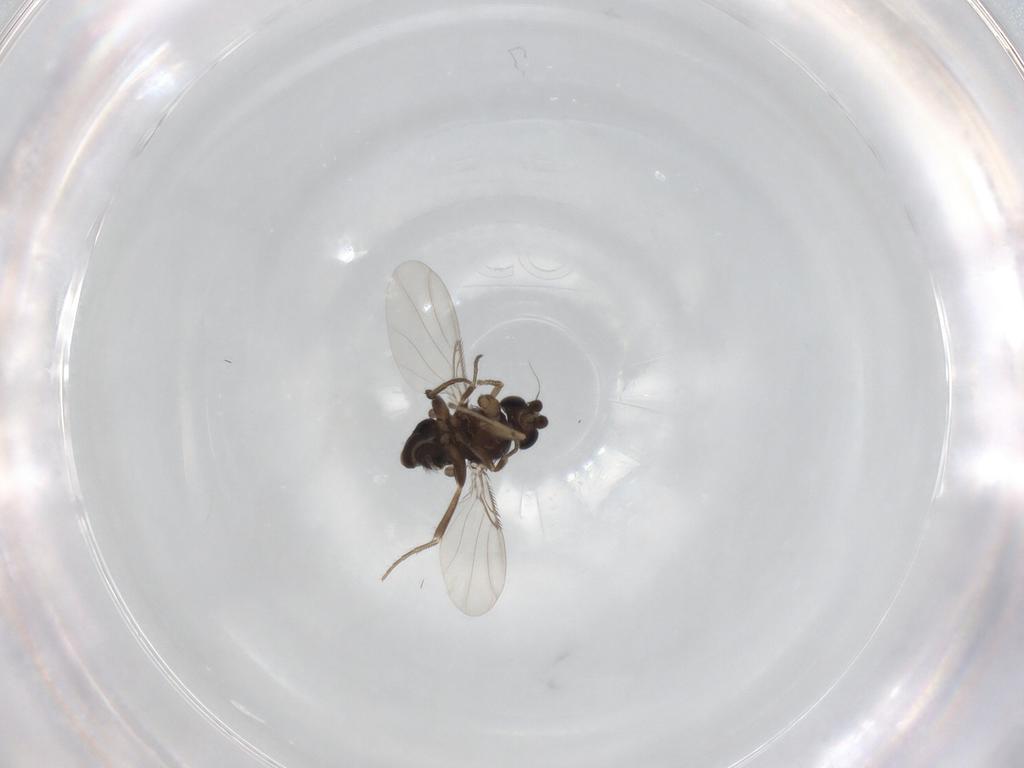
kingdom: Animalia
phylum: Arthropoda
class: Insecta
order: Diptera
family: Phoridae
